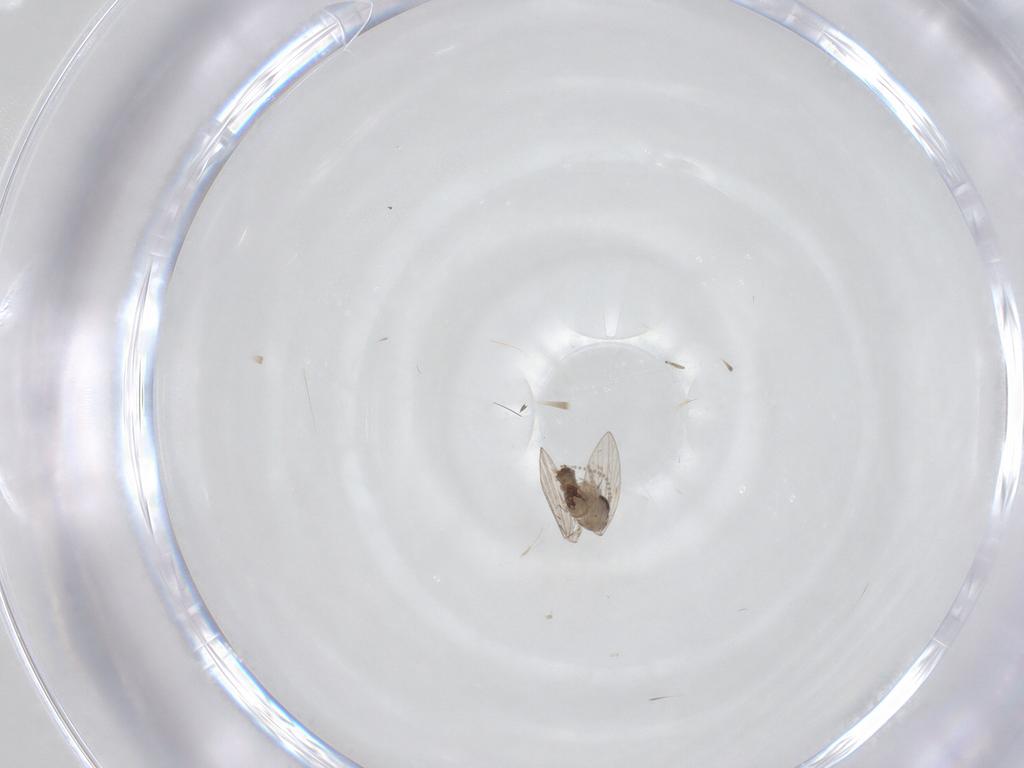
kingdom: Animalia
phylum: Arthropoda
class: Insecta
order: Diptera
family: Psychodidae
